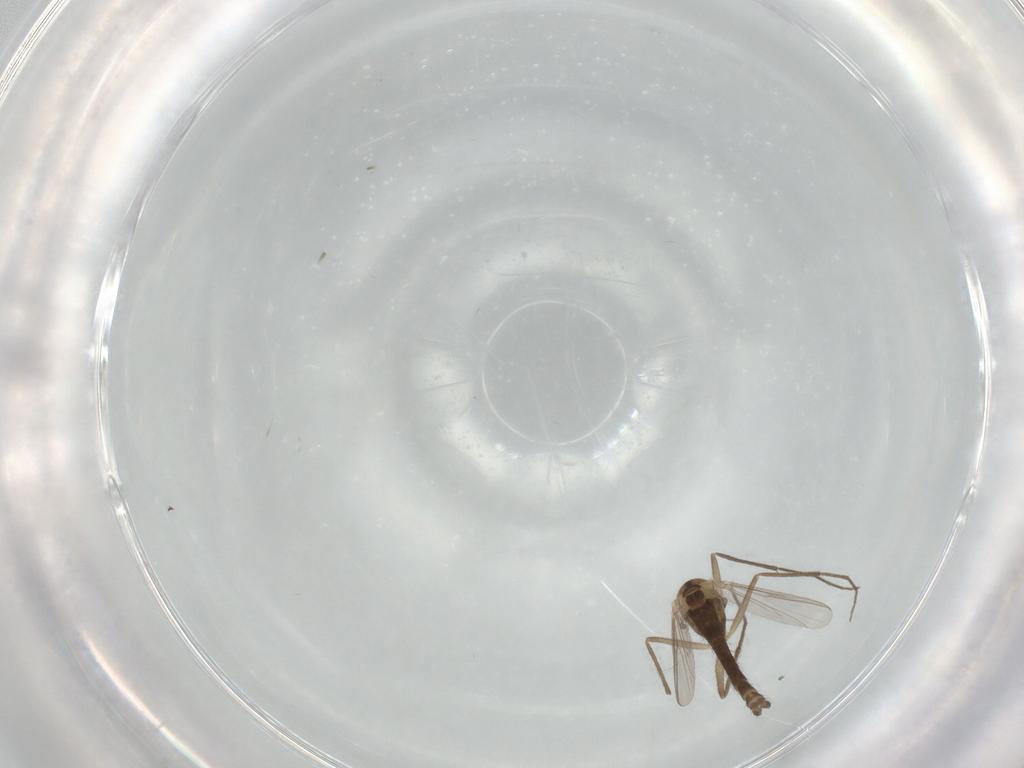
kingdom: Animalia
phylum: Arthropoda
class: Insecta
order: Diptera
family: Chironomidae
